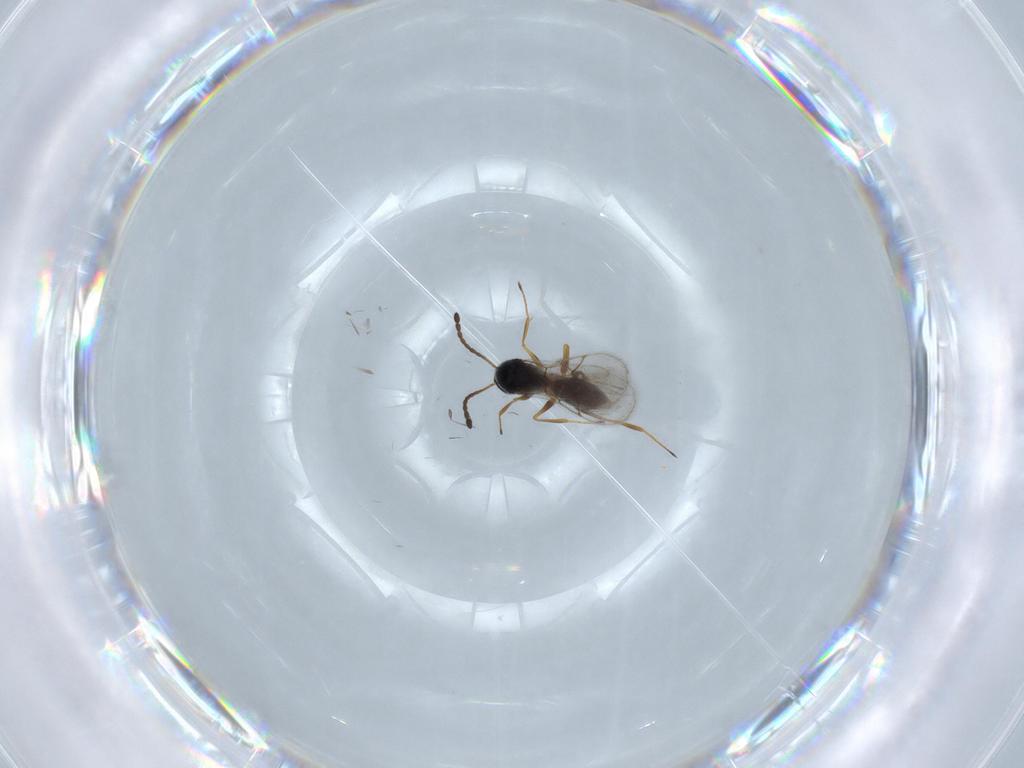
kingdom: Animalia
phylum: Arthropoda
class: Insecta
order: Hymenoptera
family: Figitidae
